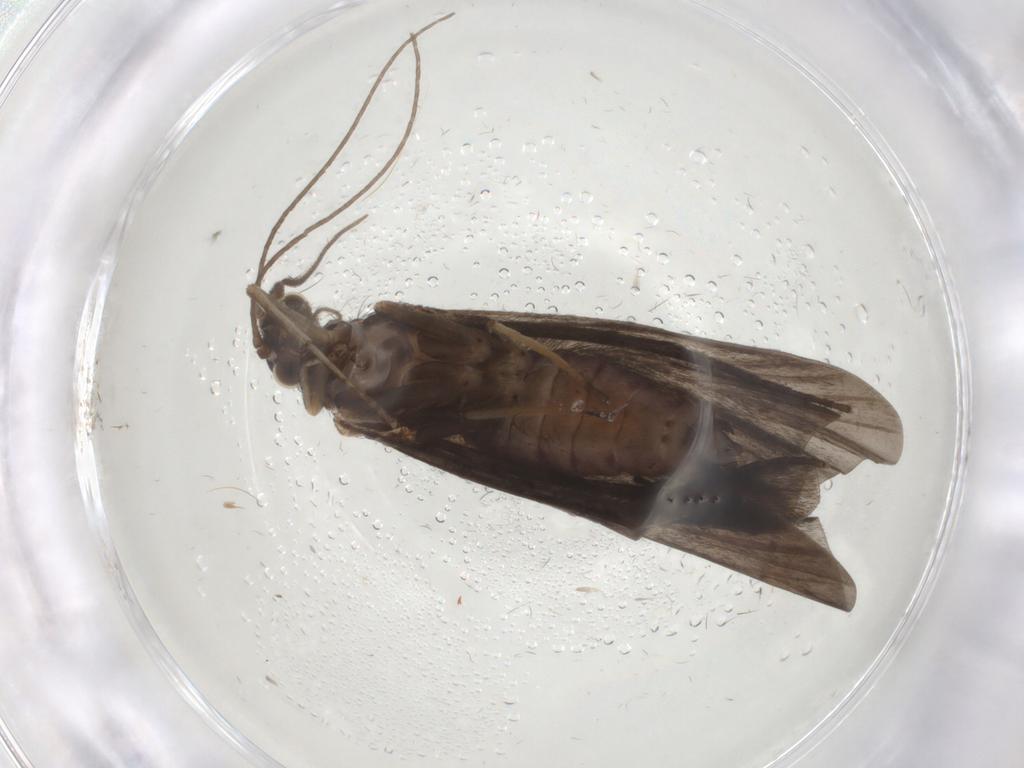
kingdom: Animalia
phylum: Arthropoda
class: Insecta
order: Trichoptera
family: Hydropsychidae
